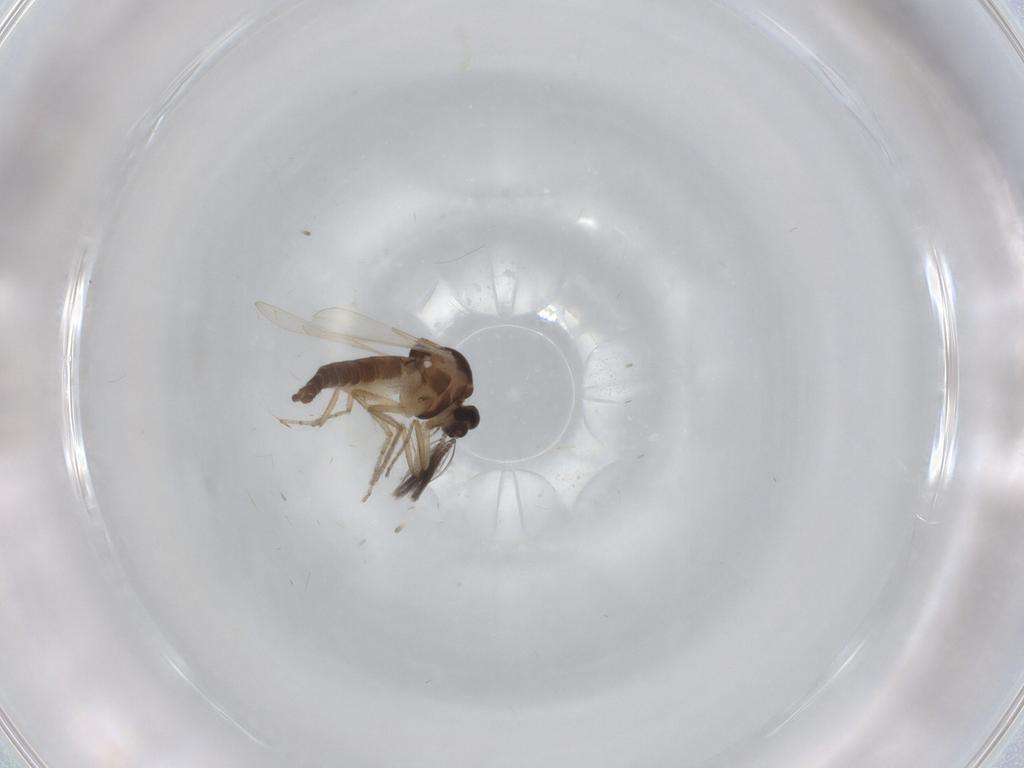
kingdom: Animalia
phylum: Arthropoda
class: Insecta
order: Diptera
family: Ceratopogonidae
